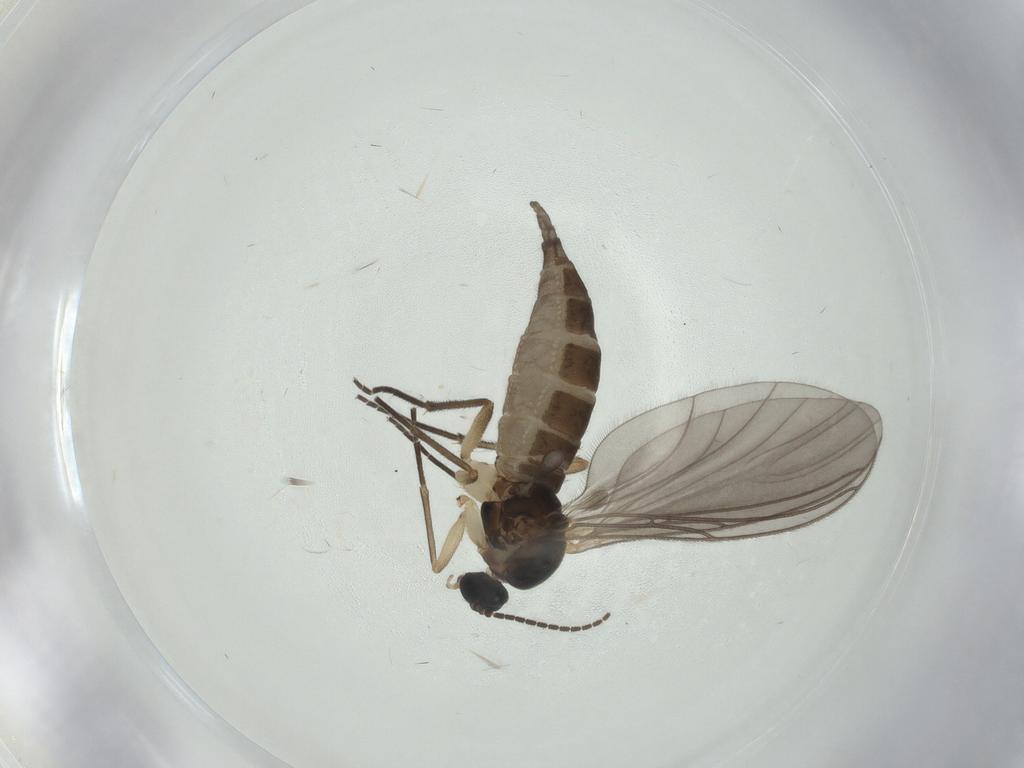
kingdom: Animalia
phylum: Arthropoda
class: Insecta
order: Diptera
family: Sciaridae
